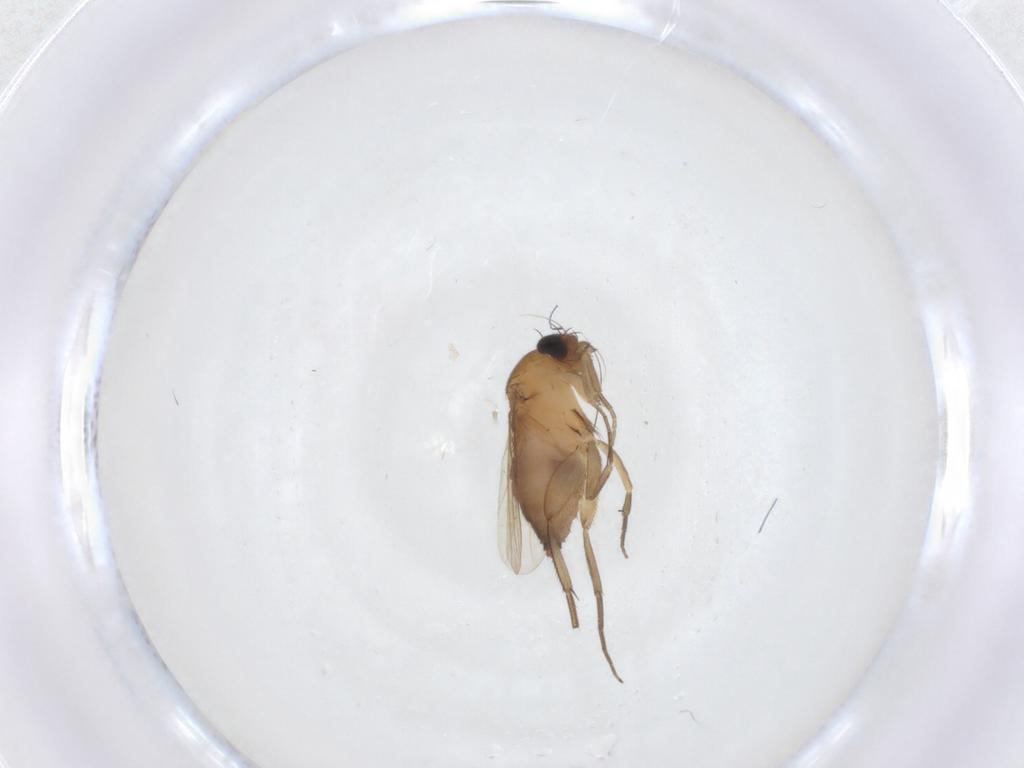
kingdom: Animalia
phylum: Arthropoda
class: Insecta
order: Diptera
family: Phoridae
